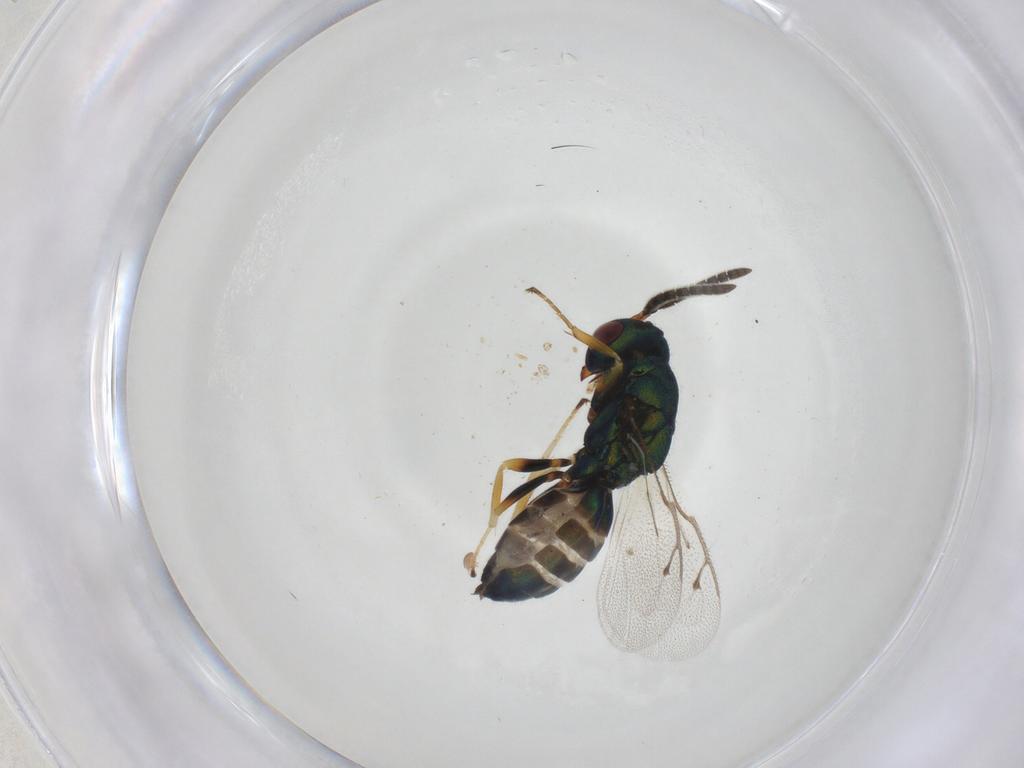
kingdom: Animalia
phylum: Arthropoda
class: Insecta
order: Hymenoptera
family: Pteromalidae
